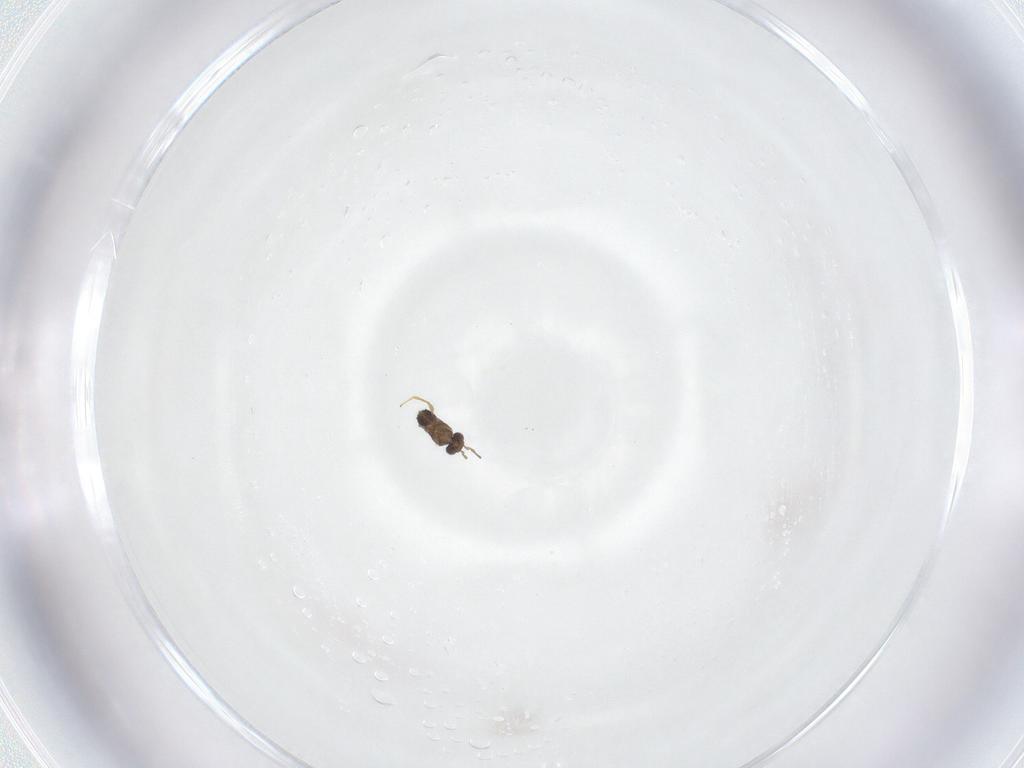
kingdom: Animalia
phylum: Arthropoda
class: Insecta
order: Hymenoptera
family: Mymaridae
